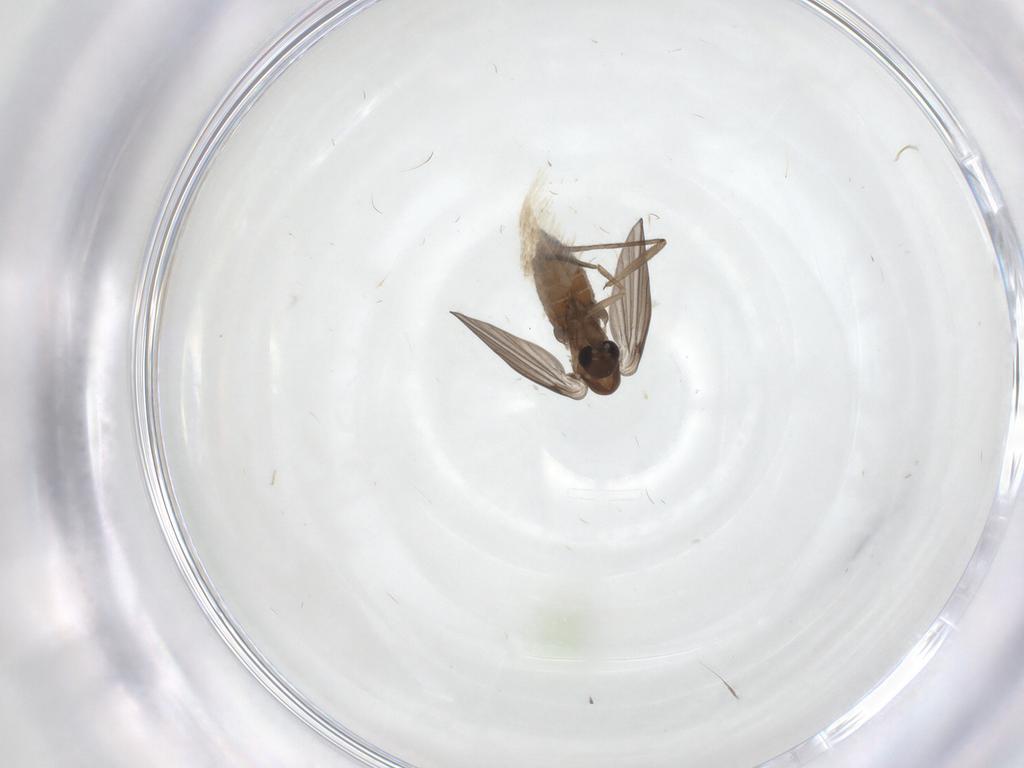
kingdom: Animalia
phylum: Arthropoda
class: Insecta
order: Diptera
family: Psychodidae
